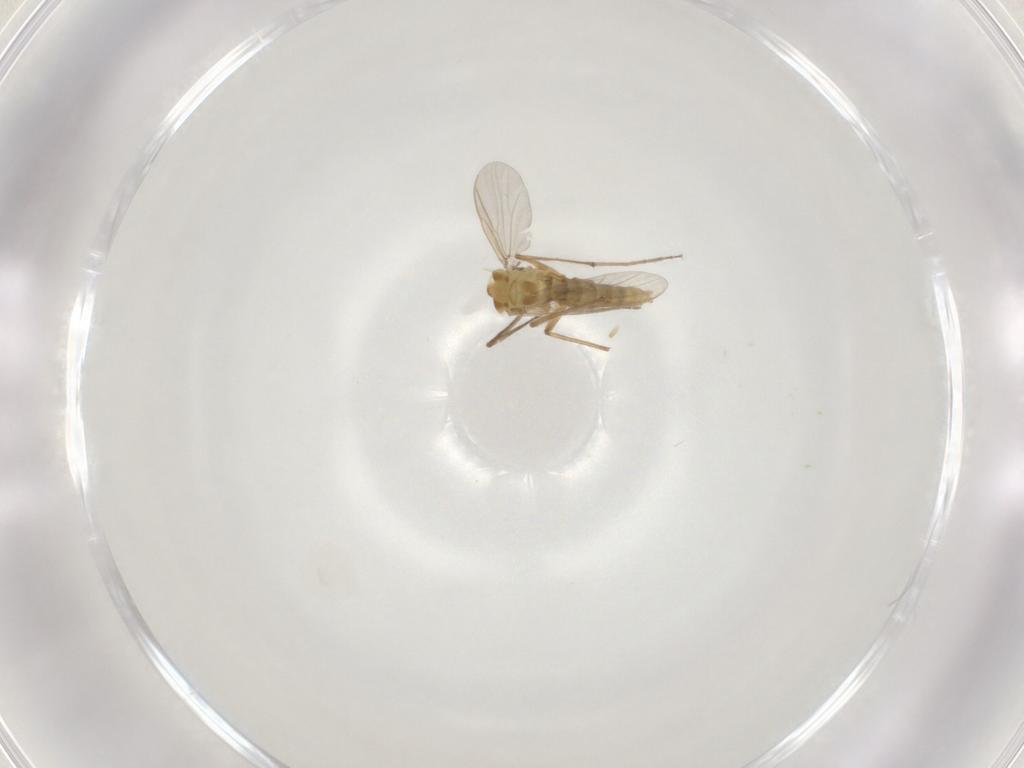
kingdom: Animalia
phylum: Arthropoda
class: Insecta
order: Diptera
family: Chironomidae
